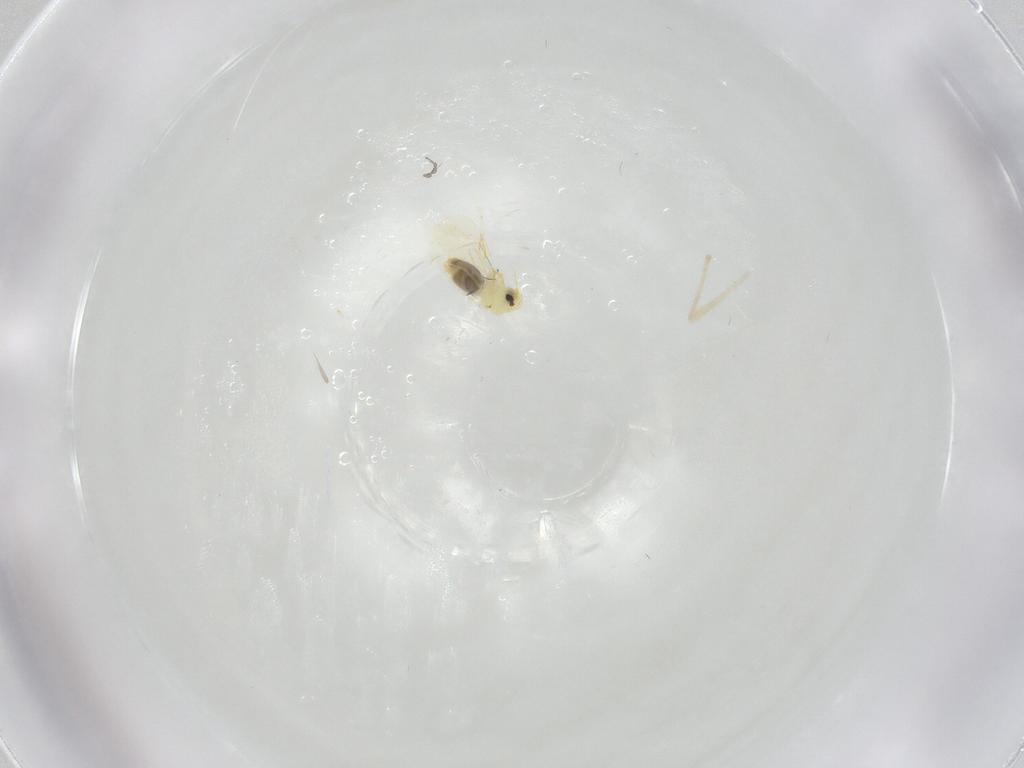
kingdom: Animalia
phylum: Arthropoda
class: Insecta
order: Hemiptera
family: Aleyrodidae
